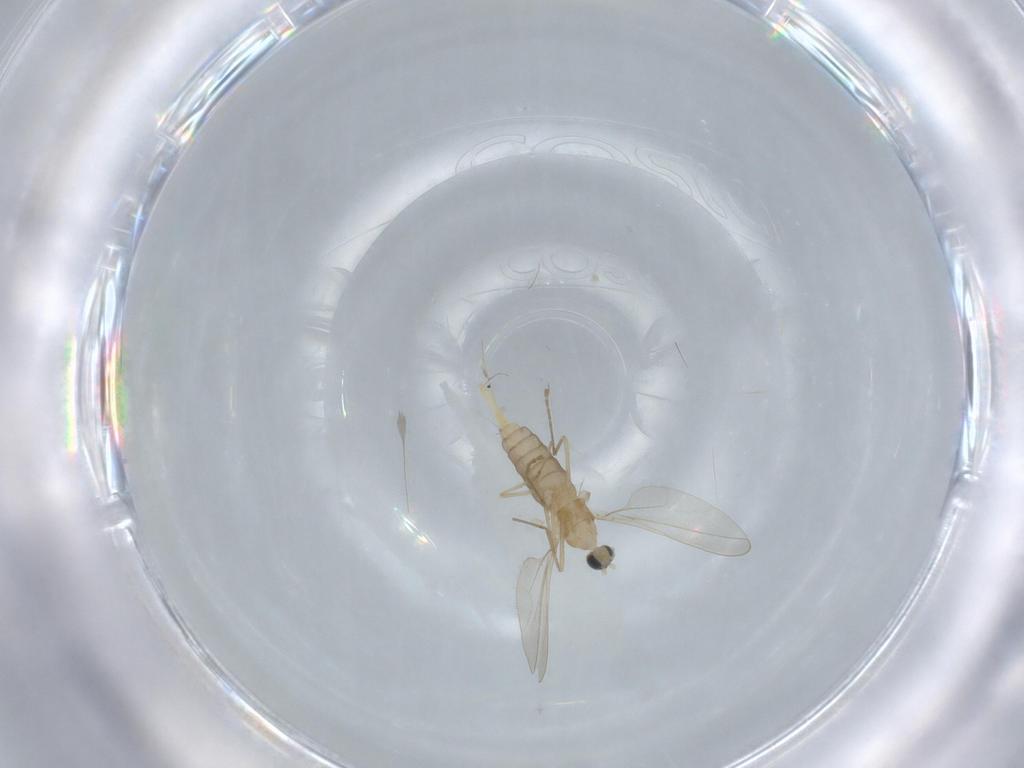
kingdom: Animalia
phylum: Arthropoda
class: Insecta
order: Diptera
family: Cecidomyiidae
